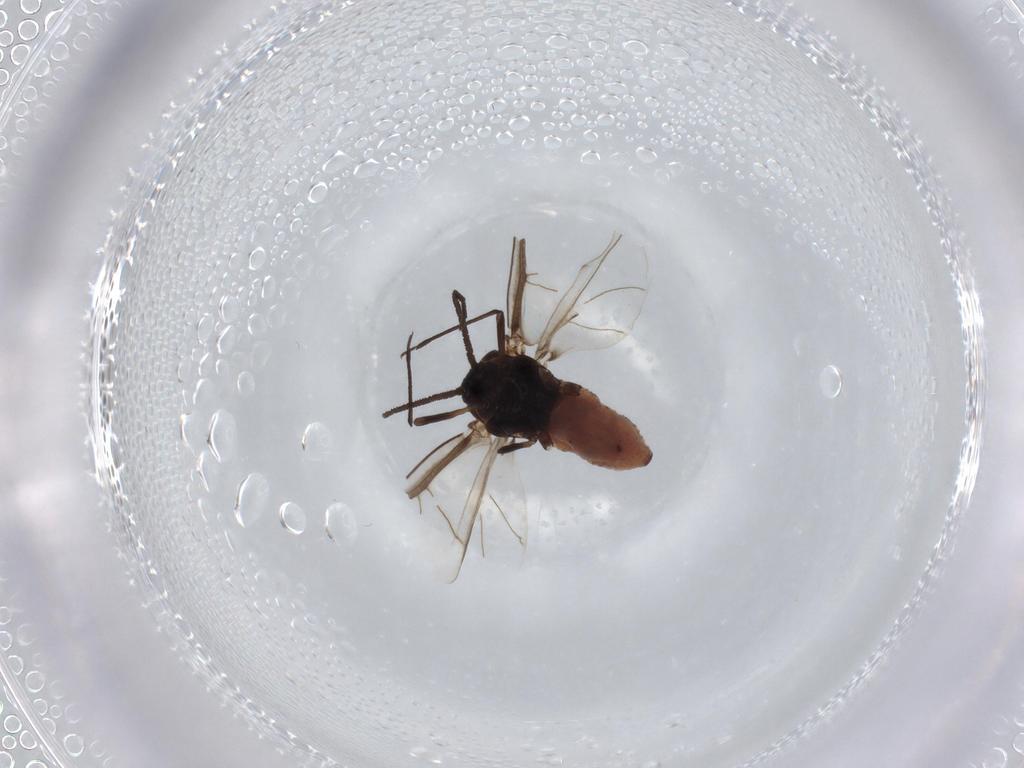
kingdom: Animalia
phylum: Arthropoda
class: Insecta
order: Hemiptera
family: Aphididae
